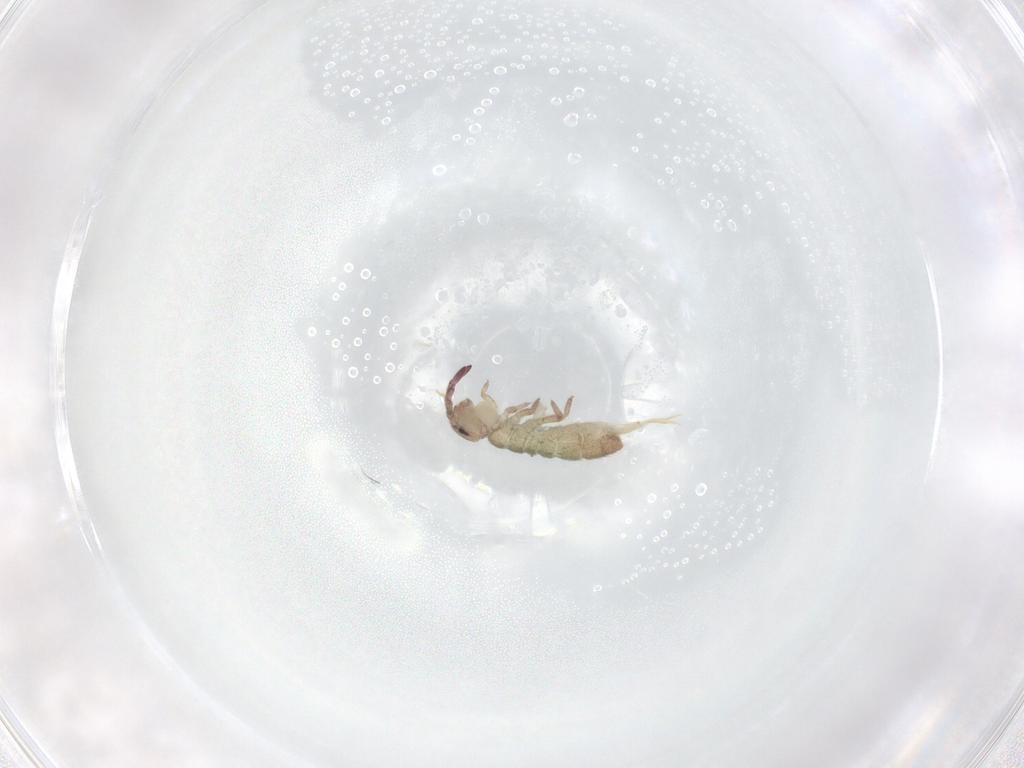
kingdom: Animalia
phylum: Arthropoda
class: Collembola
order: Entomobryomorpha
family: Isotomidae
